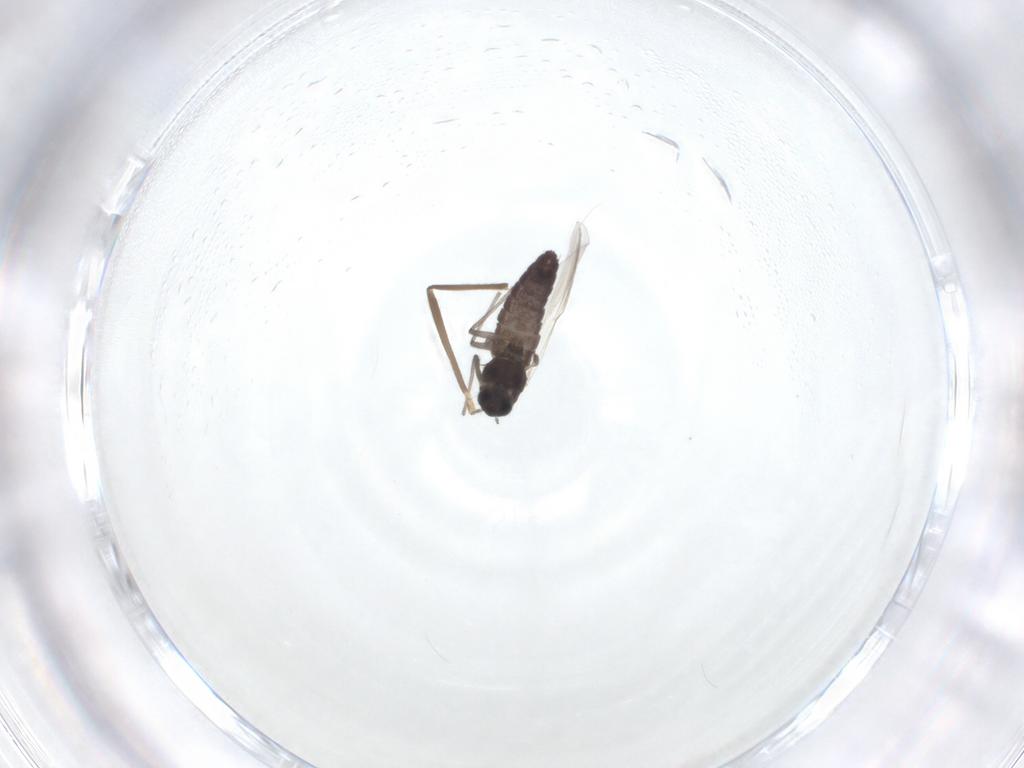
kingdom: Animalia
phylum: Arthropoda
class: Insecta
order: Diptera
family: Chironomidae
